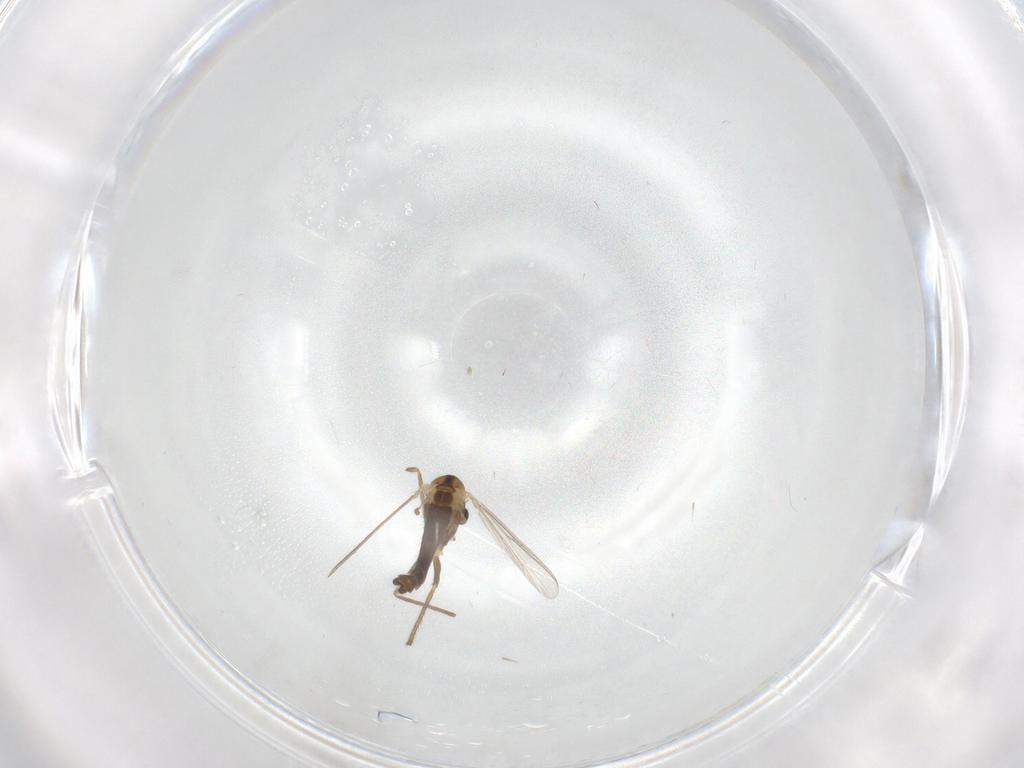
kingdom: Animalia
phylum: Arthropoda
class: Insecta
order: Diptera
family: Chironomidae
